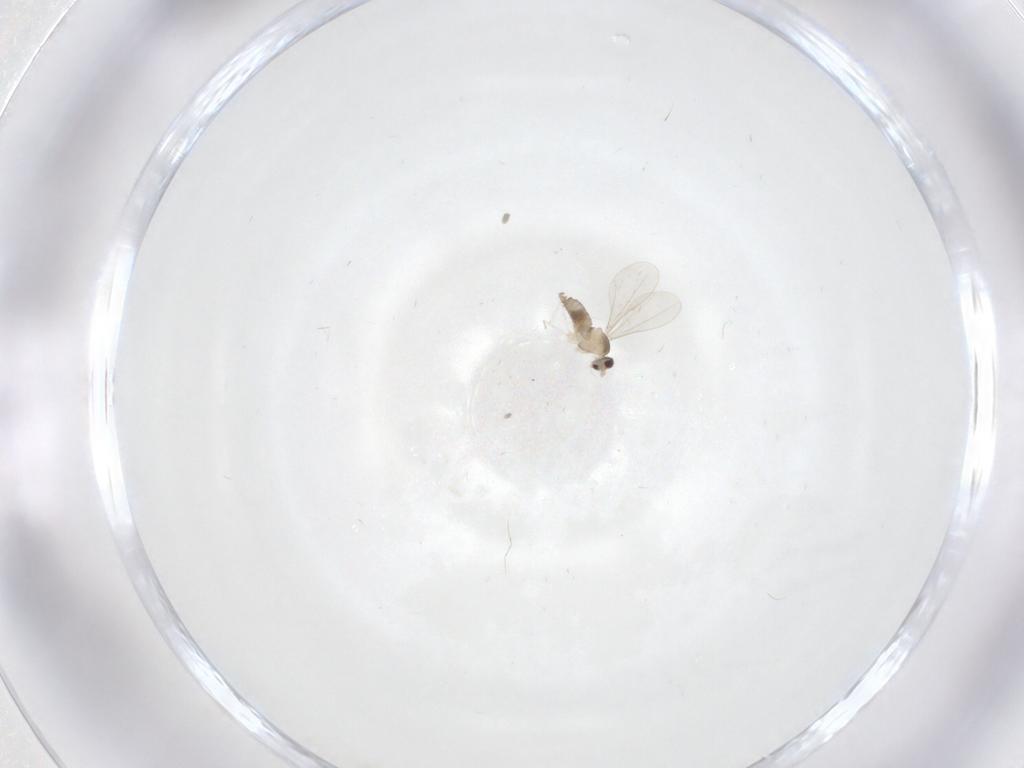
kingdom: Animalia
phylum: Arthropoda
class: Insecta
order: Diptera
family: Cecidomyiidae
